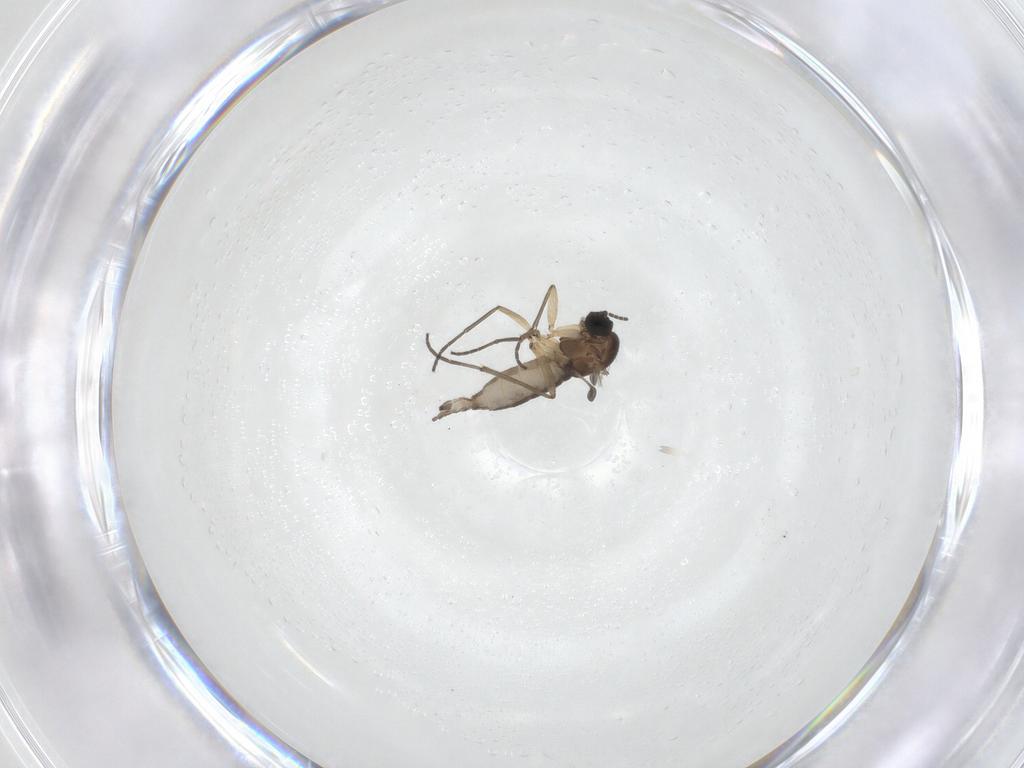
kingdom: Animalia
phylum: Arthropoda
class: Insecta
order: Diptera
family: Sciaridae
